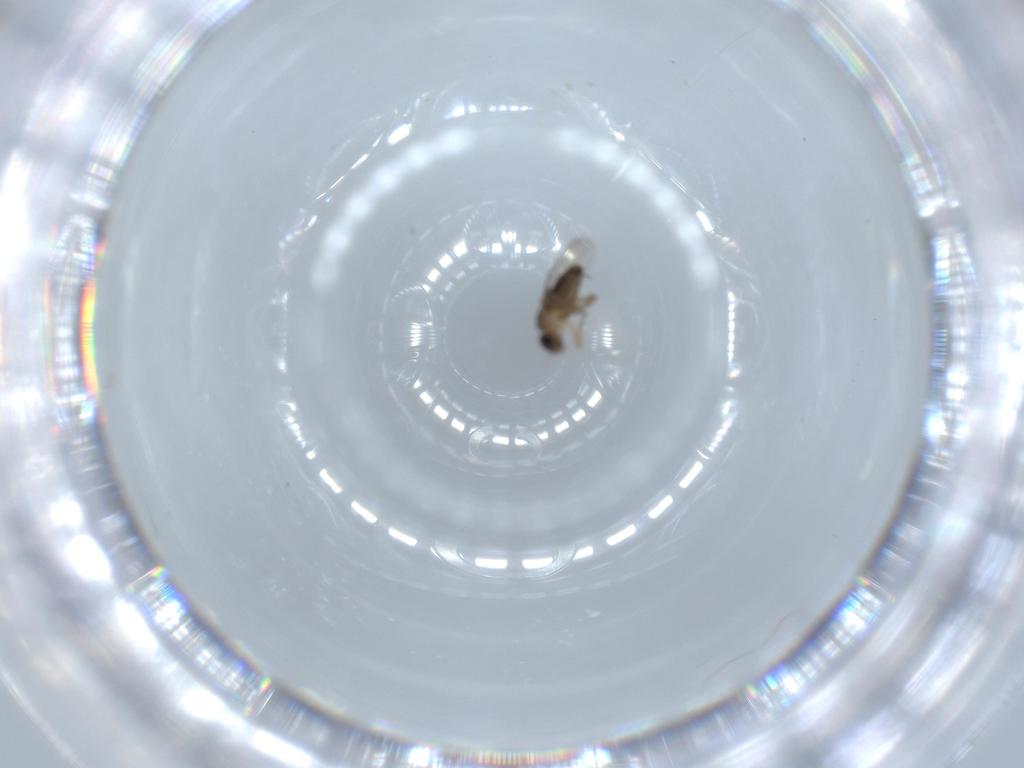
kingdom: Animalia
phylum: Arthropoda
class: Insecta
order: Diptera
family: Phoridae
